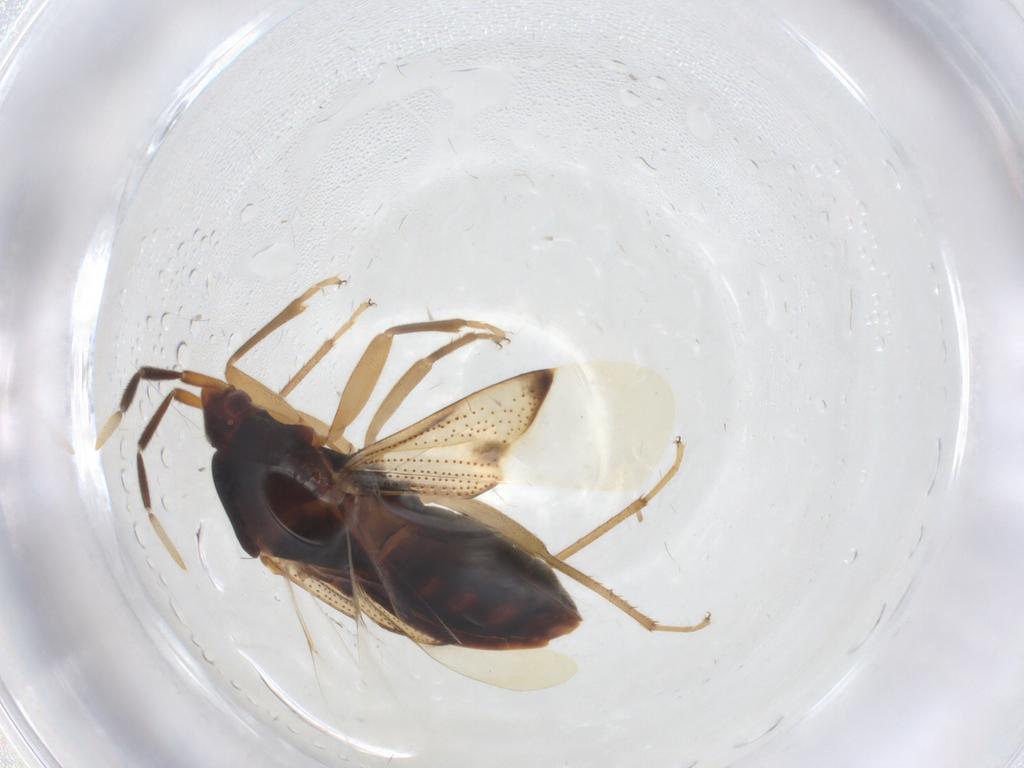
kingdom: Animalia
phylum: Arthropoda
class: Insecta
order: Hemiptera
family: Rhyparochromidae
